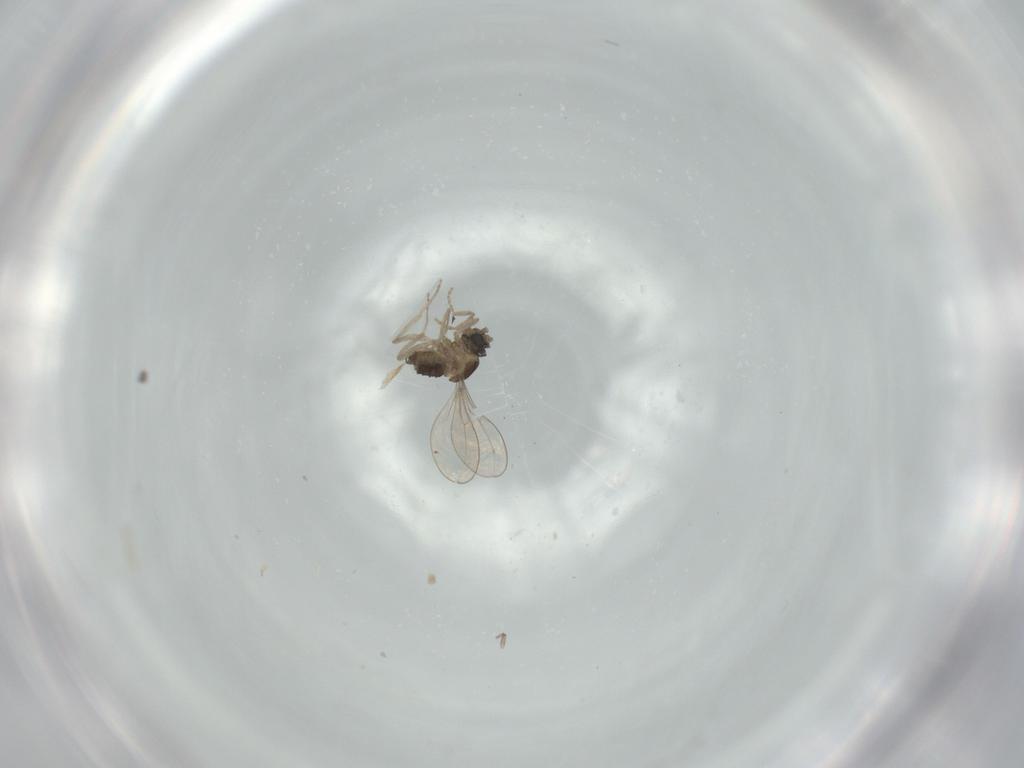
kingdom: Animalia
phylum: Arthropoda
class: Insecta
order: Diptera
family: Cecidomyiidae
